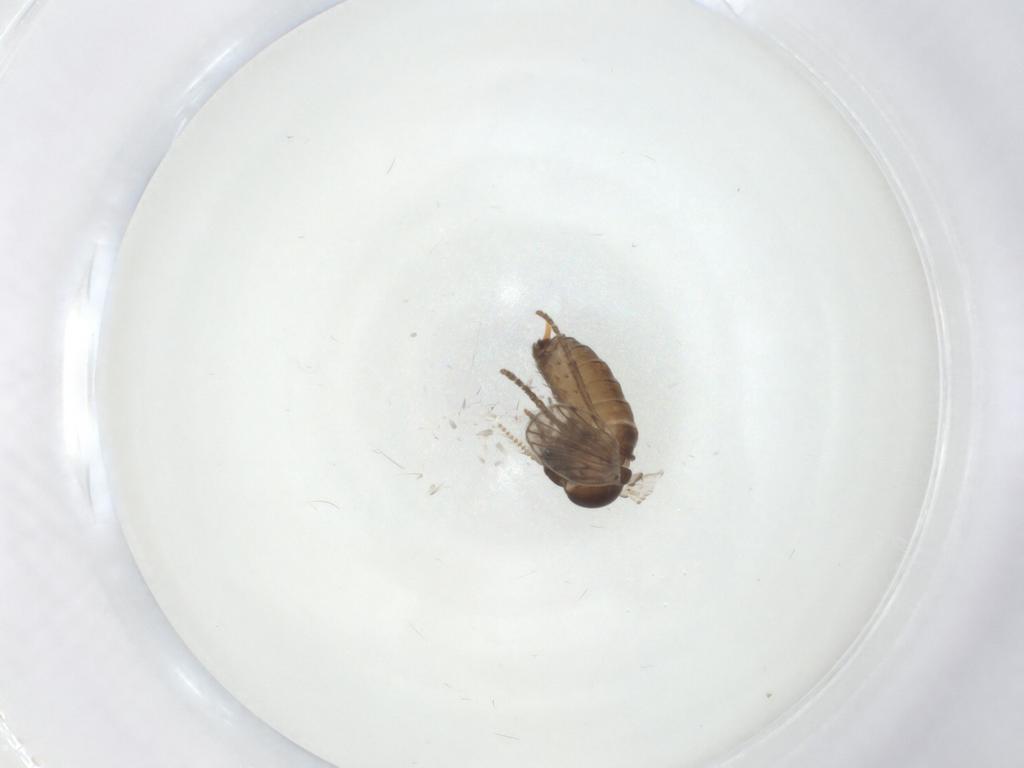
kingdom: Animalia
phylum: Arthropoda
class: Insecta
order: Diptera
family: Psychodidae
